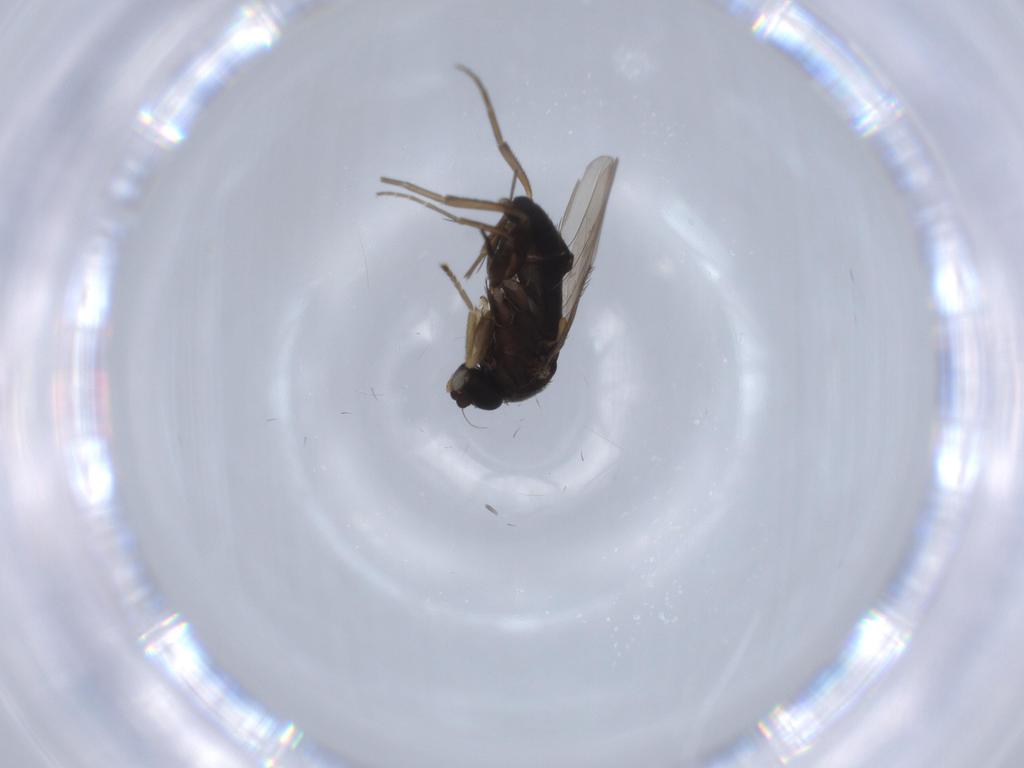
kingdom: Animalia
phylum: Arthropoda
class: Insecta
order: Diptera
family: Phoridae
